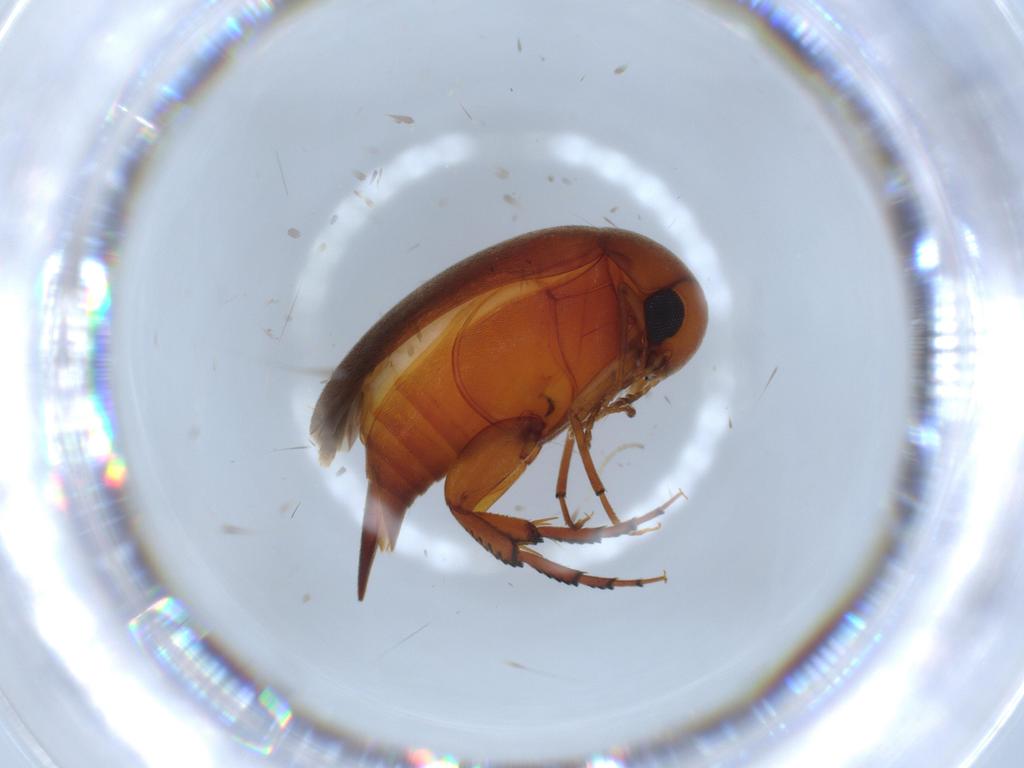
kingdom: Animalia
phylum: Arthropoda
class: Insecta
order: Coleoptera
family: Mordellidae
